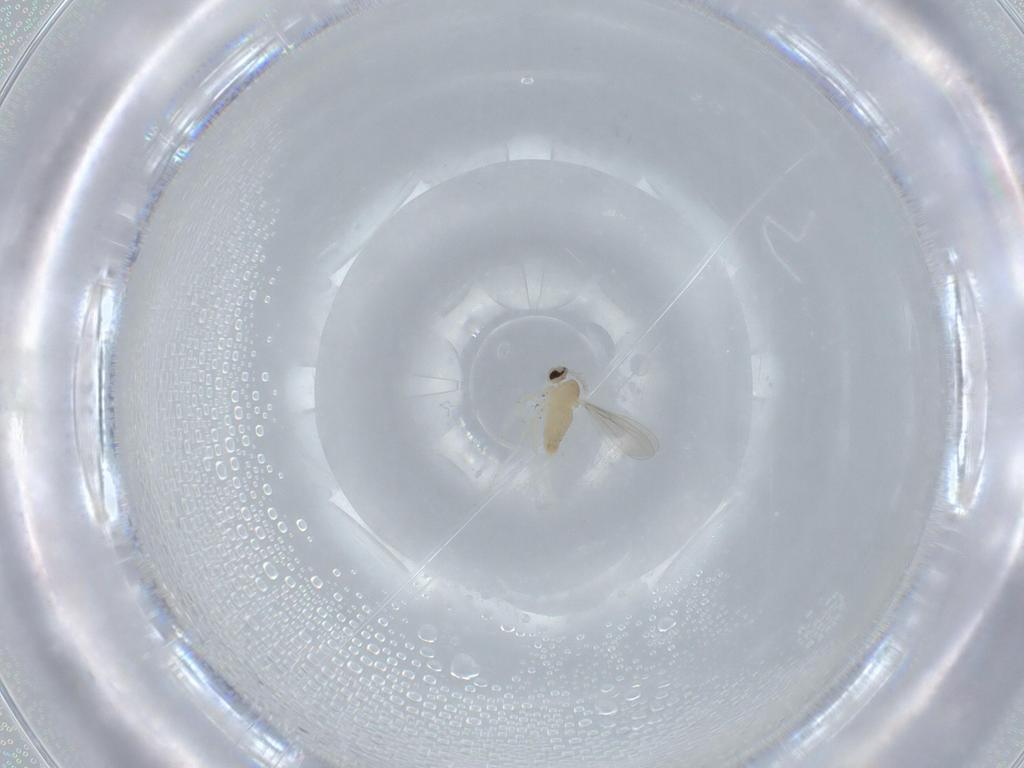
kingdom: Animalia
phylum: Arthropoda
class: Insecta
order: Diptera
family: Cecidomyiidae
